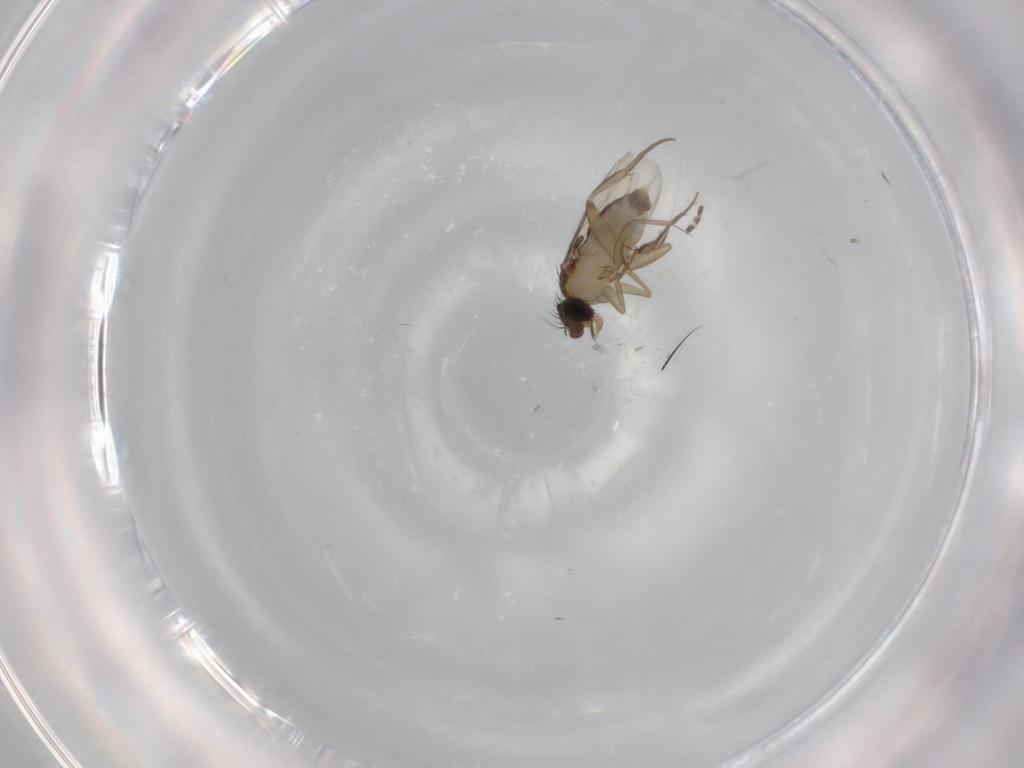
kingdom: Animalia
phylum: Arthropoda
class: Insecta
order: Diptera
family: Phoridae
